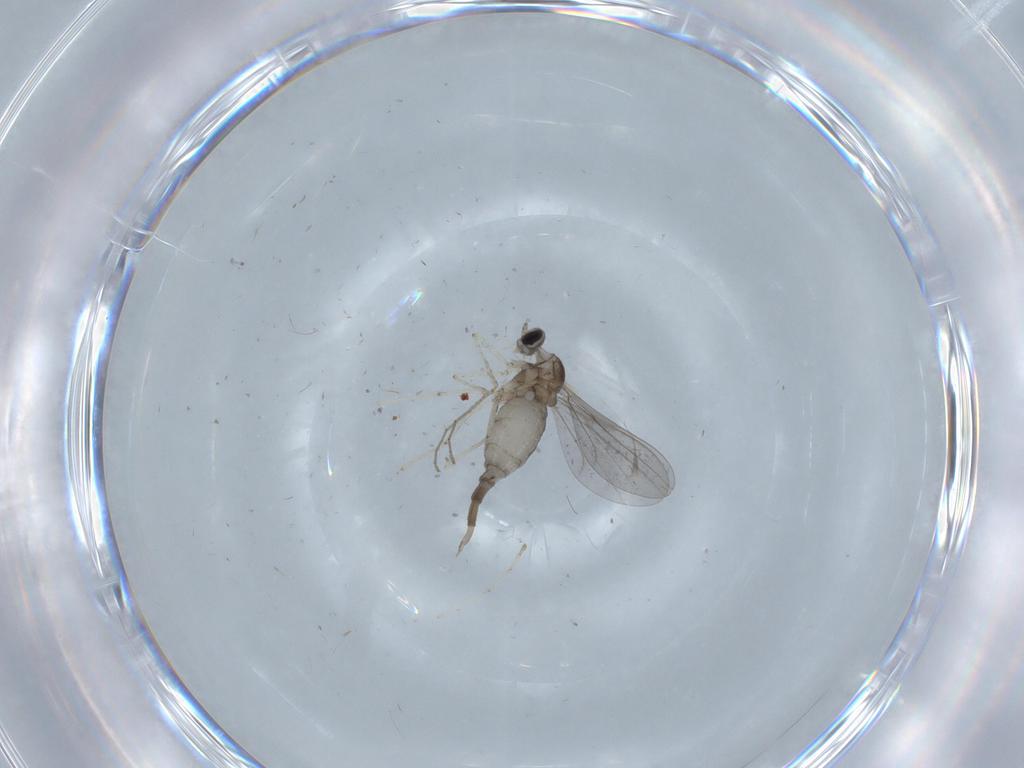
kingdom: Animalia
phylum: Arthropoda
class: Insecta
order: Diptera
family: Cecidomyiidae
